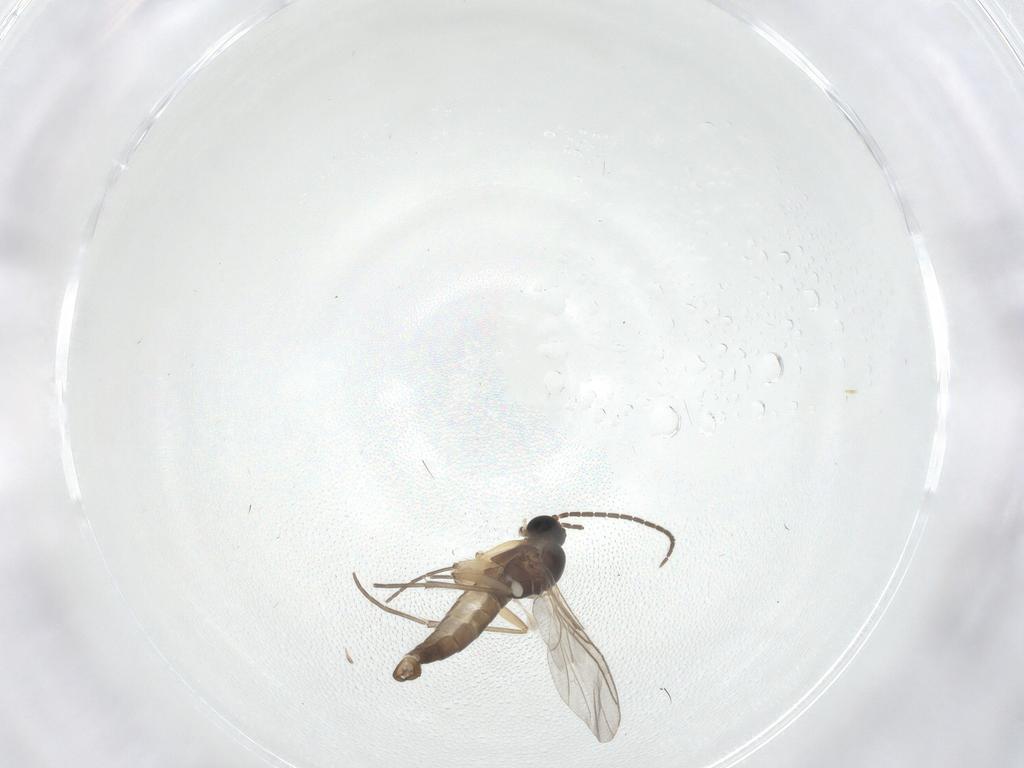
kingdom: Animalia
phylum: Arthropoda
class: Insecta
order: Diptera
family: Sciaridae
